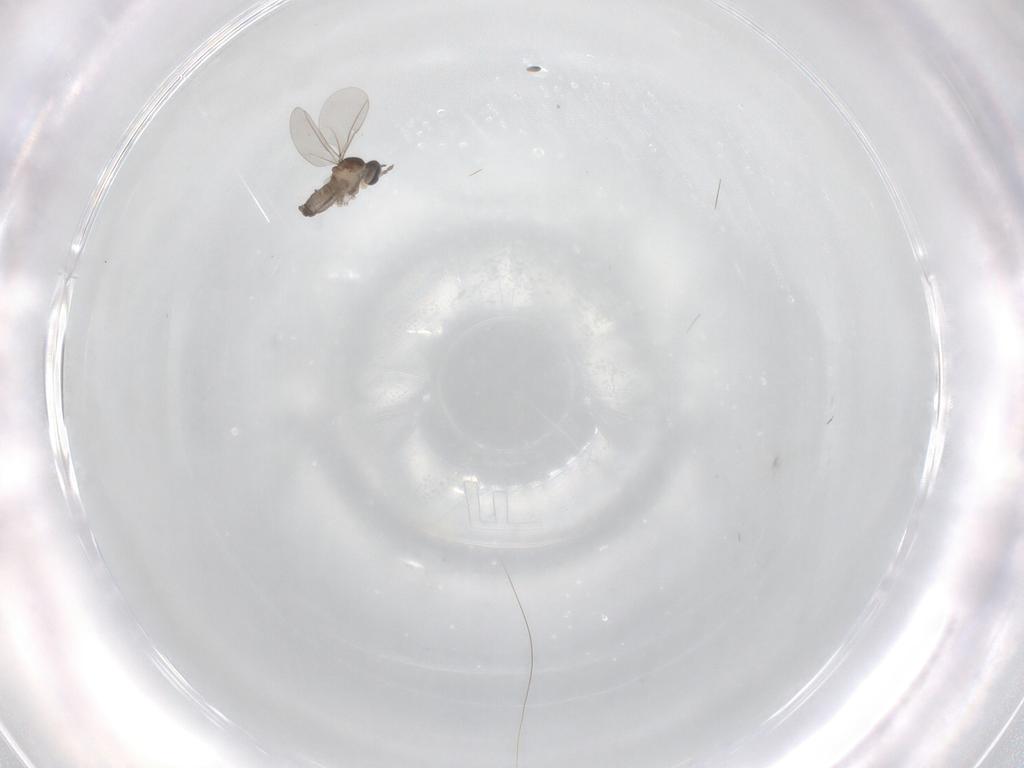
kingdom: Animalia
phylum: Arthropoda
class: Insecta
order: Diptera
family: Cecidomyiidae
